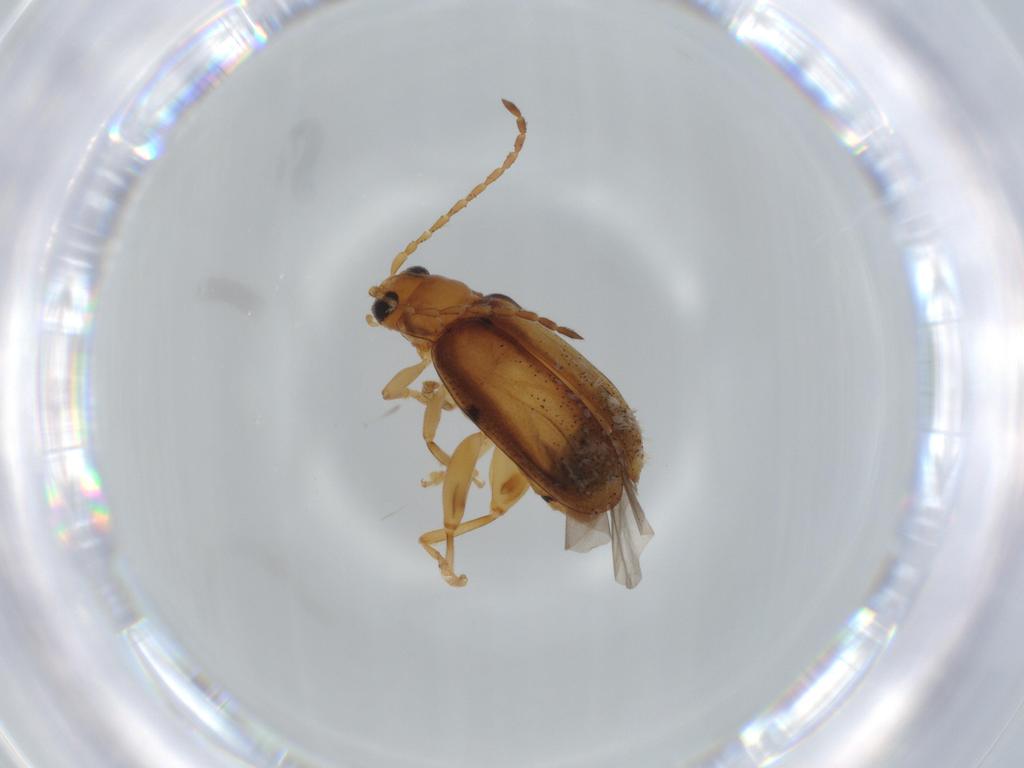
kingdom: Animalia
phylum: Arthropoda
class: Insecta
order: Coleoptera
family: Chrysomelidae
